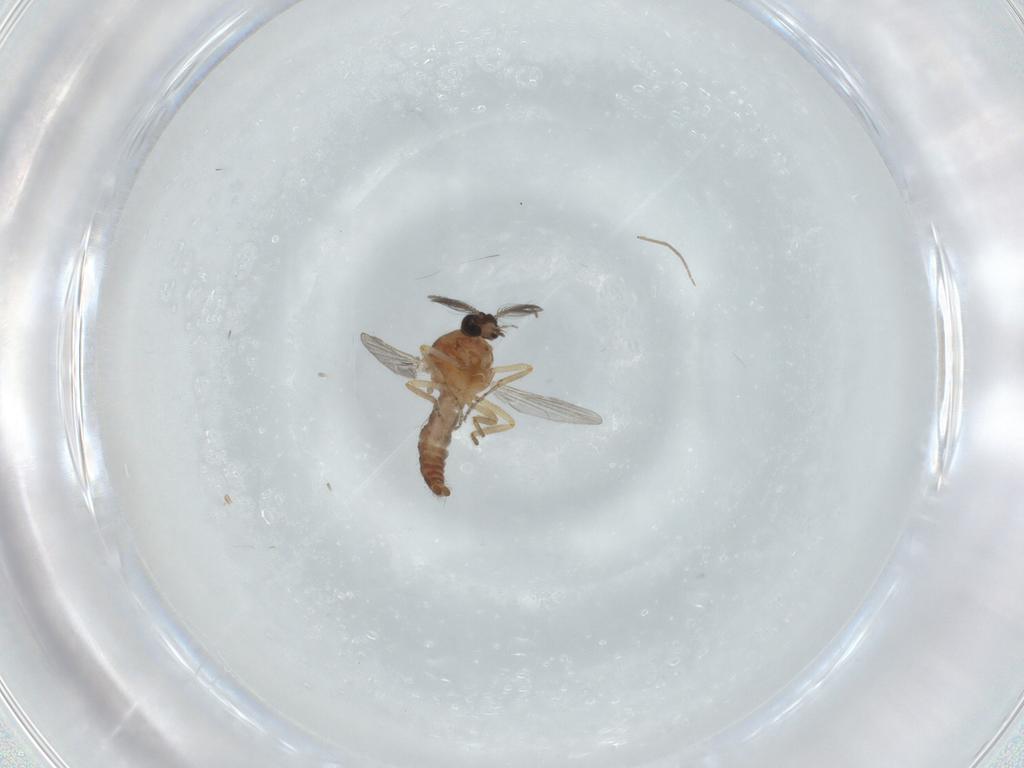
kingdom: Animalia
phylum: Arthropoda
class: Insecta
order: Diptera
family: Ceratopogonidae
